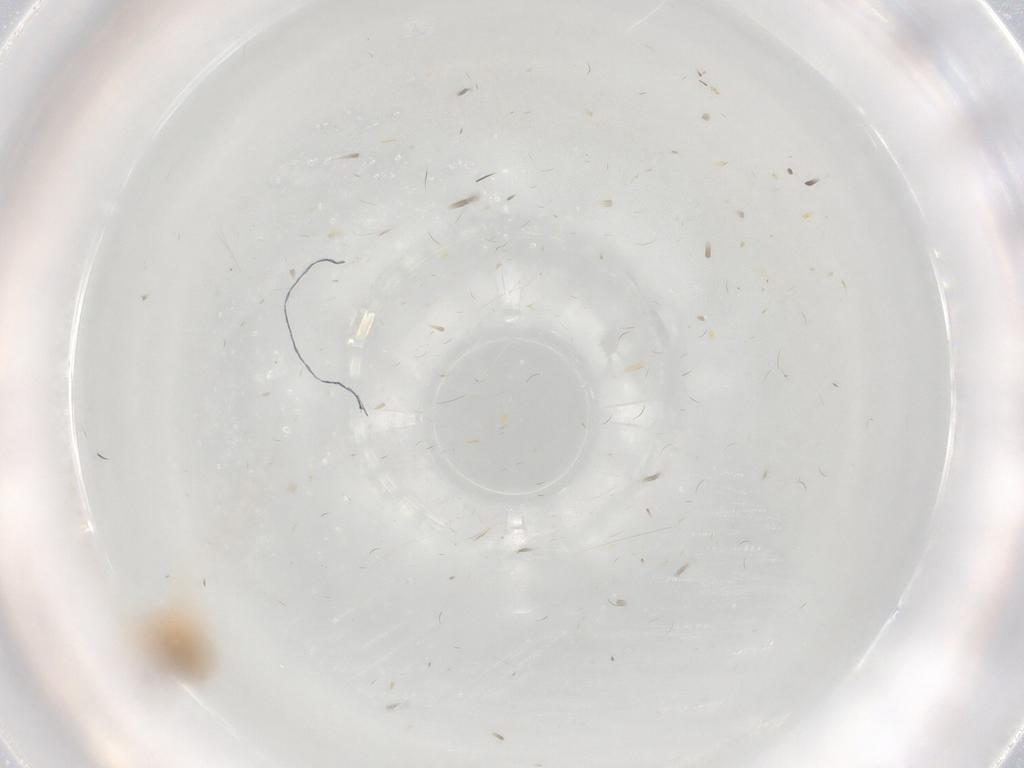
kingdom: Animalia
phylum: Arthropoda
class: Insecta
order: Diptera
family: Psychodidae
